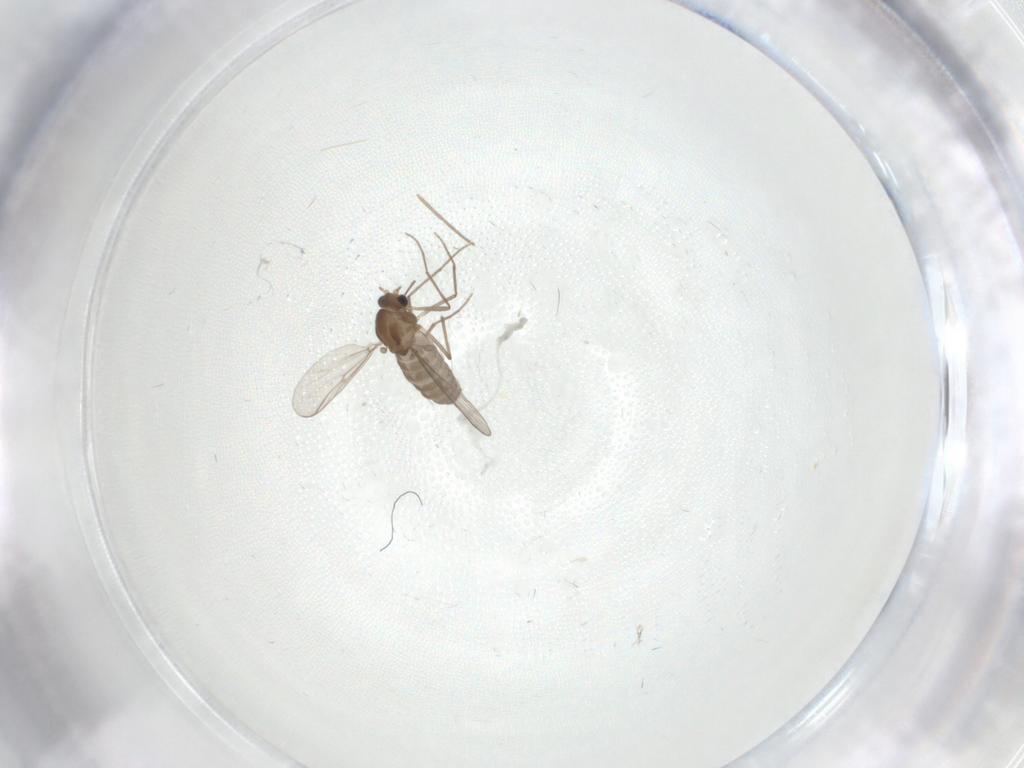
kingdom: Animalia
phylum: Arthropoda
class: Insecta
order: Diptera
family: Chironomidae
